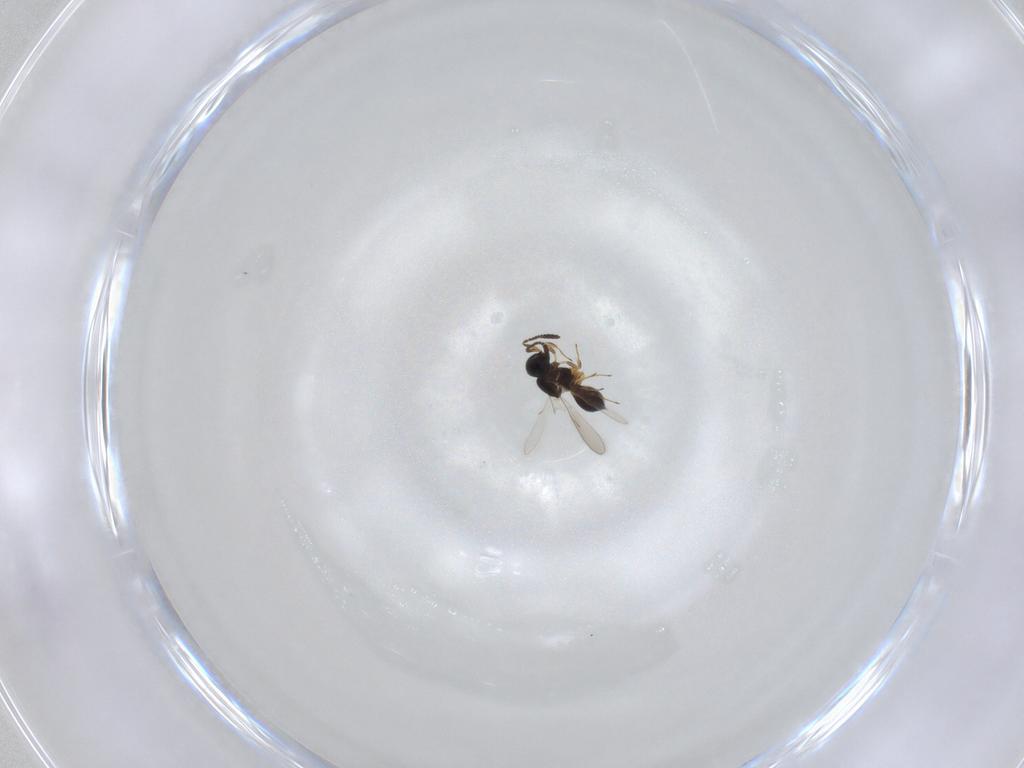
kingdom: Animalia
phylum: Arthropoda
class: Insecta
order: Hymenoptera
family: Scelionidae
